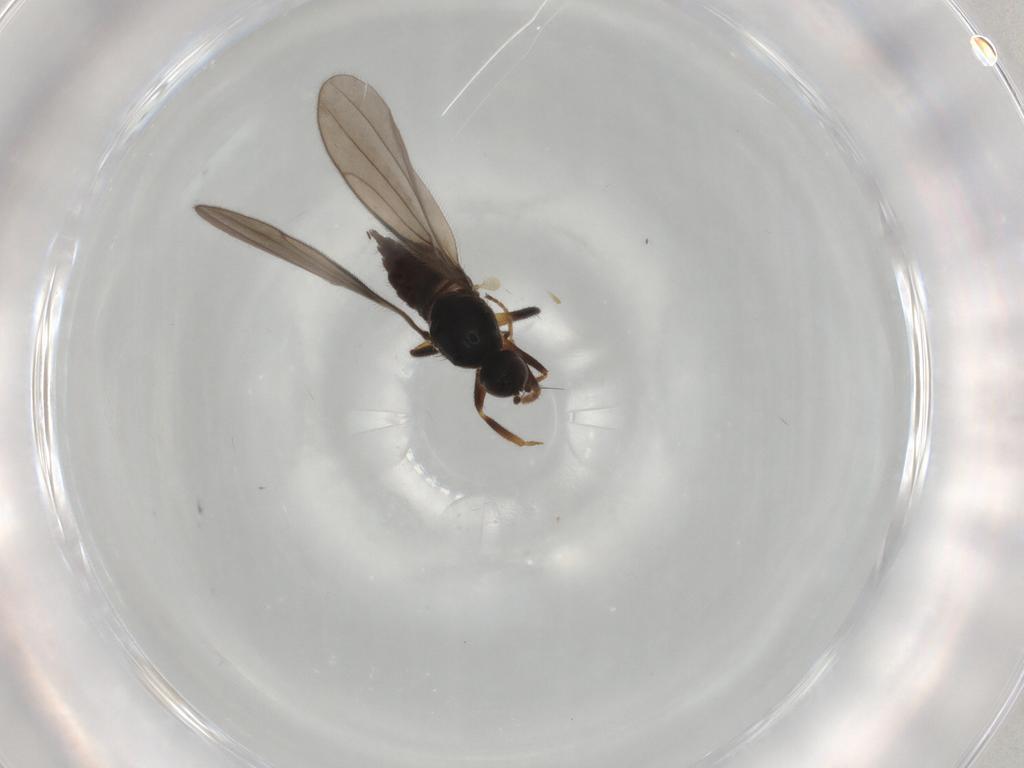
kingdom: Animalia
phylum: Arthropoda
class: Insecta
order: Diptera
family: Hybotidae
